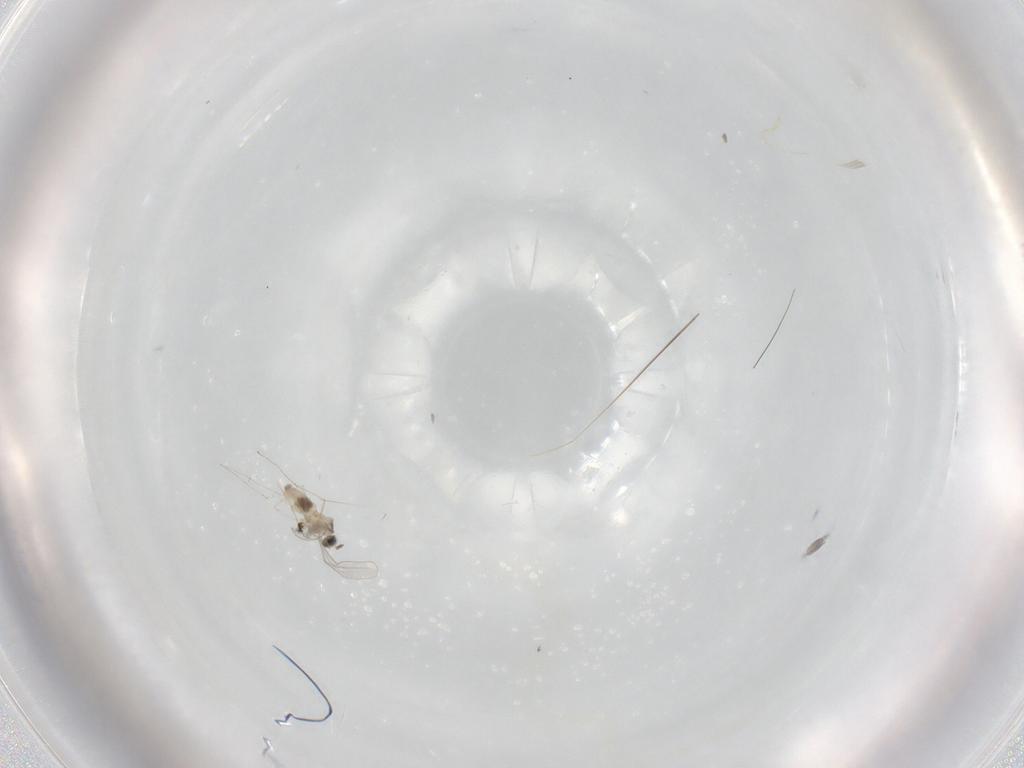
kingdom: Animalia
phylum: Arthropoda
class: Insecta
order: Diptera
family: Cecidomyiidae
